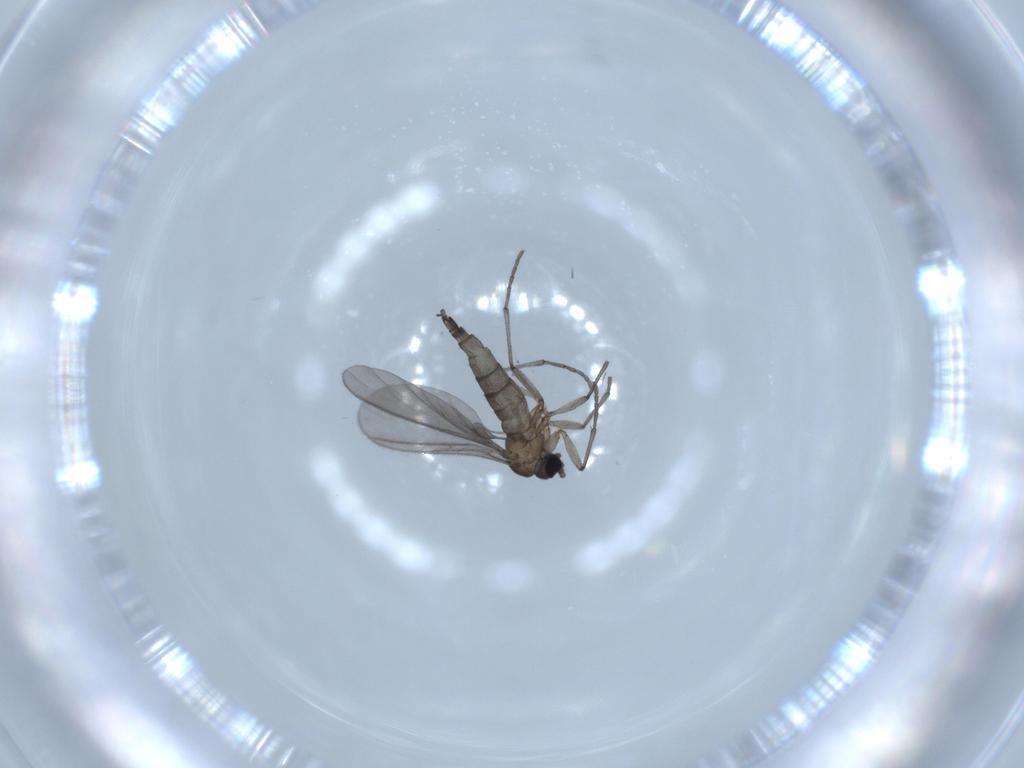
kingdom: Animalia
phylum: Arthropoda
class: Insecta
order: Diptera
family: Sciaridae
